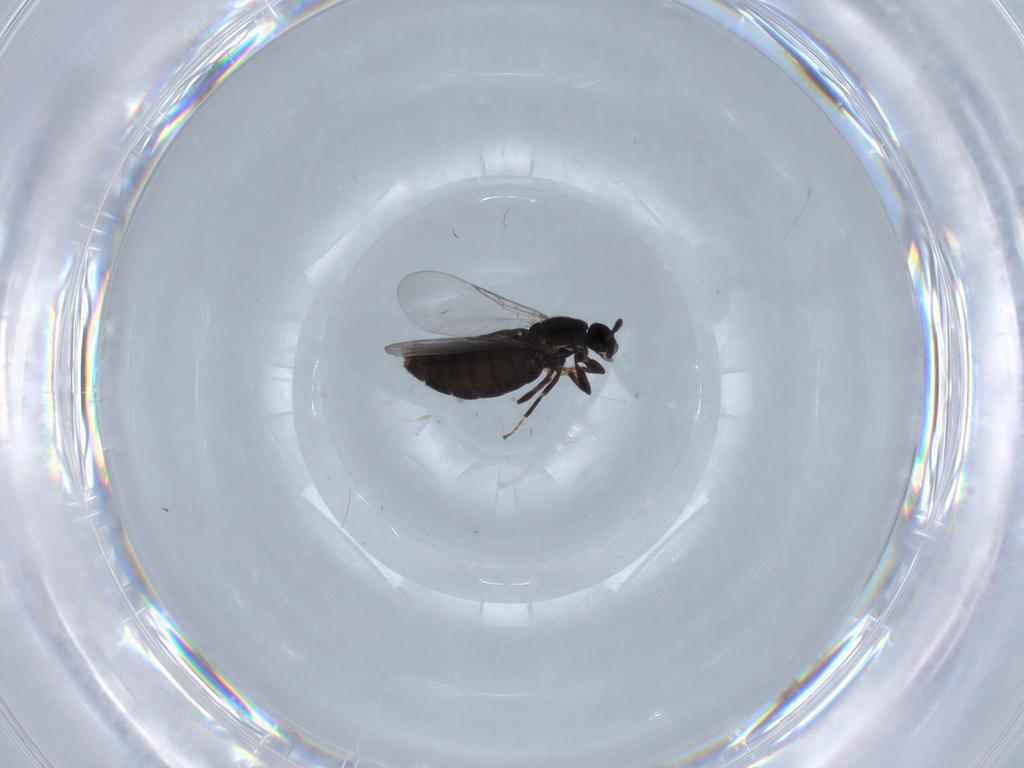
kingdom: Animalia
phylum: Arthropoda
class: Insecta
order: Diptera
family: Scatopsidae
